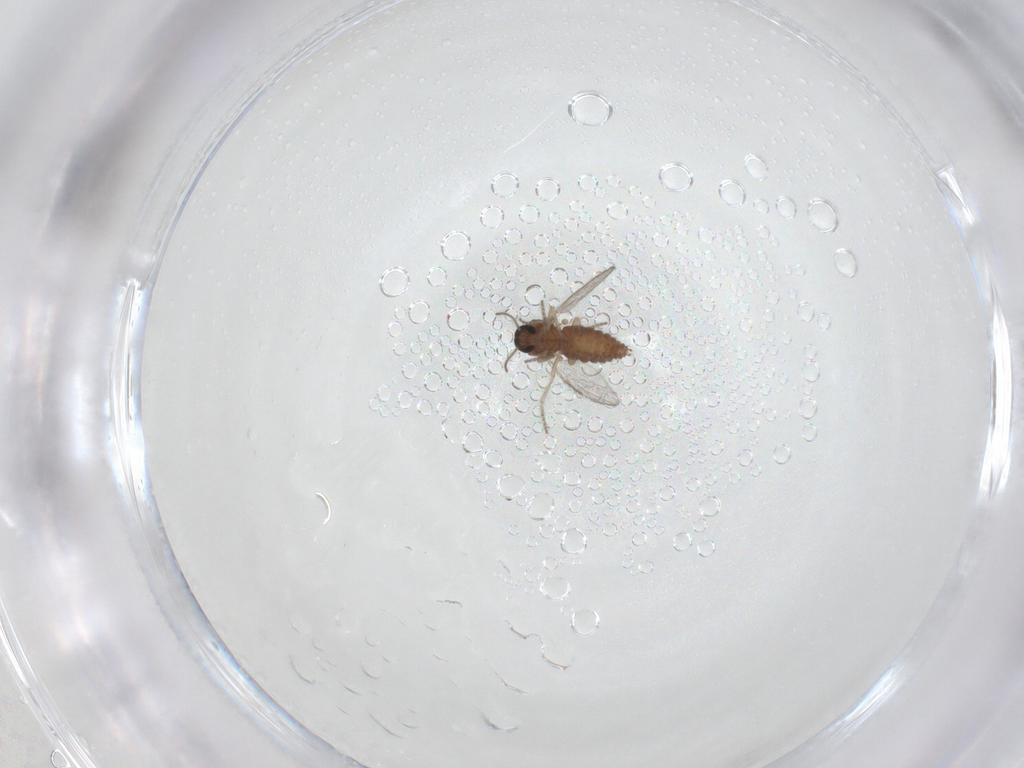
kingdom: Animalia
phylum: Arthropoda
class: Insecta
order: Diptera
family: Ceratopogonidae
